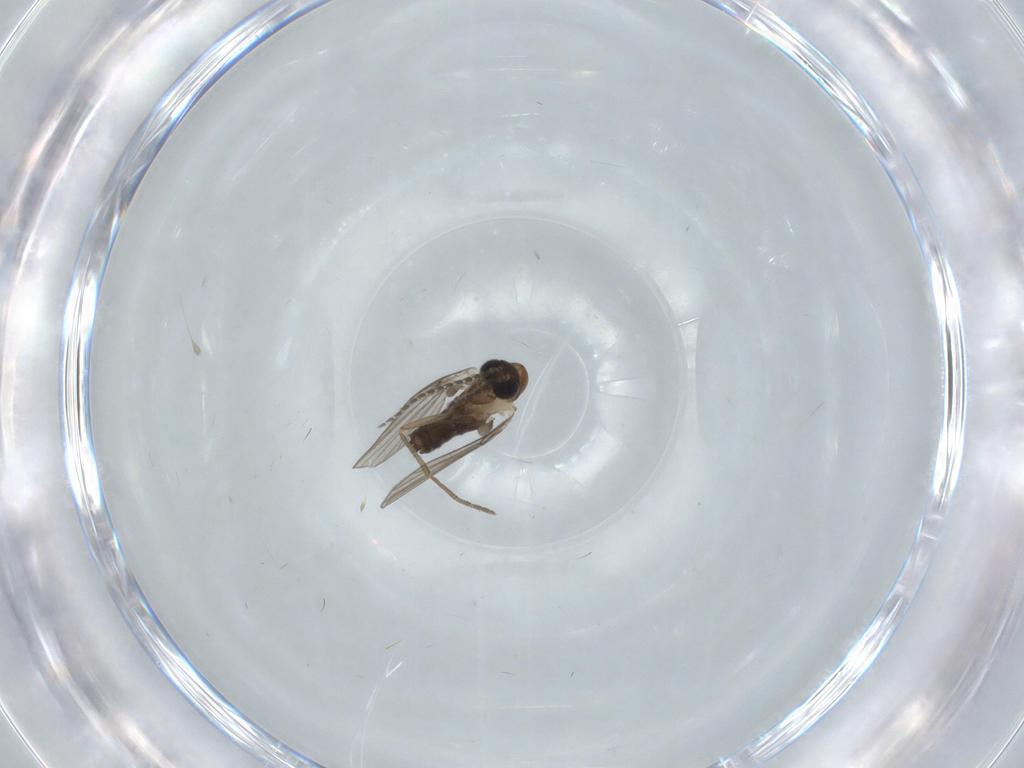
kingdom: Animalia
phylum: Arthropoda
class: Insecta
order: Diptera
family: Psychodidae
